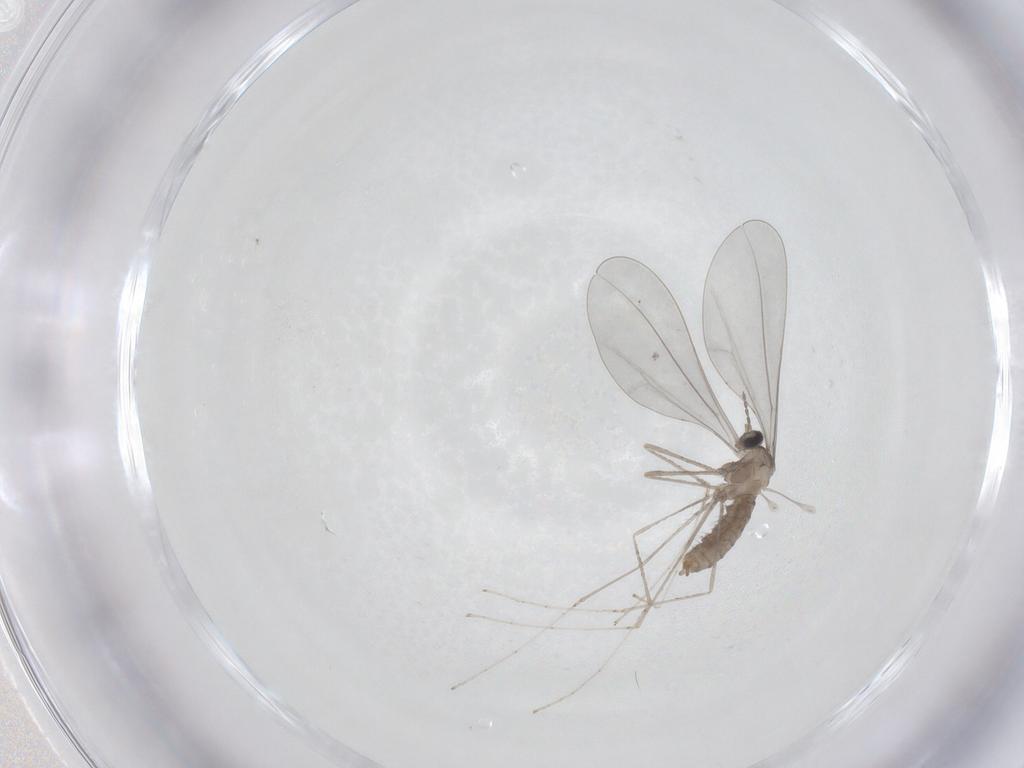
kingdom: Animalia
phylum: Arthropoda
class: Insecta
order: Diptera
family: Cecidomyiidae
